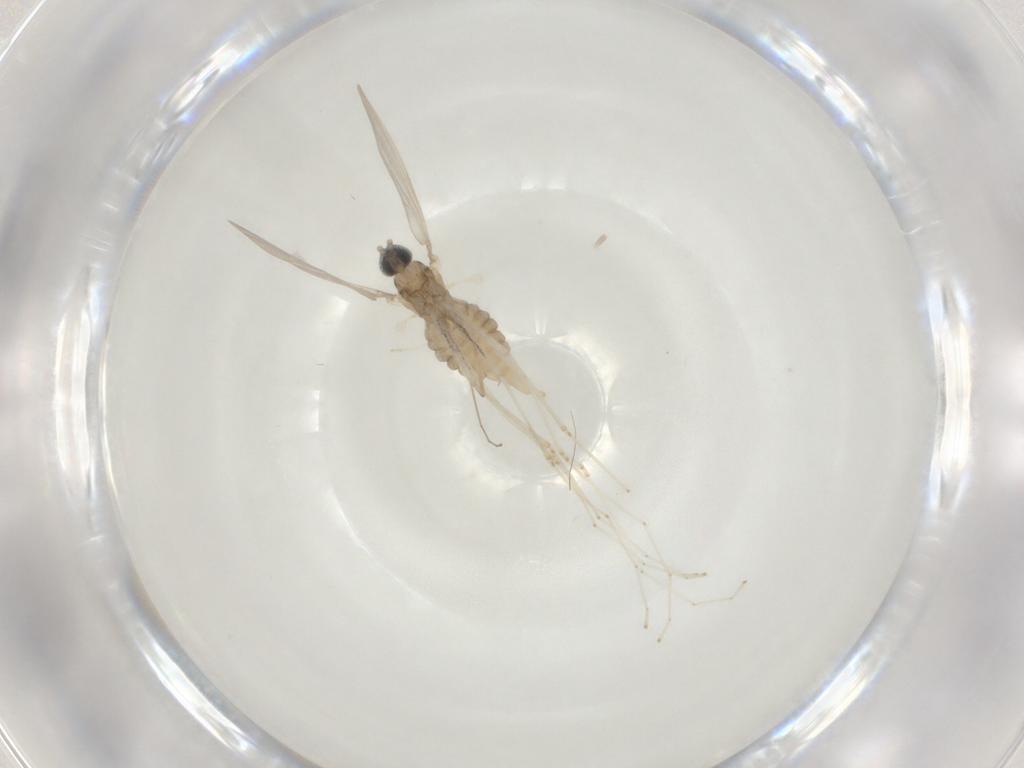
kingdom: Animalia
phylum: Arthropoda
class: Insecta
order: Diptera
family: Cecidomyiidae
